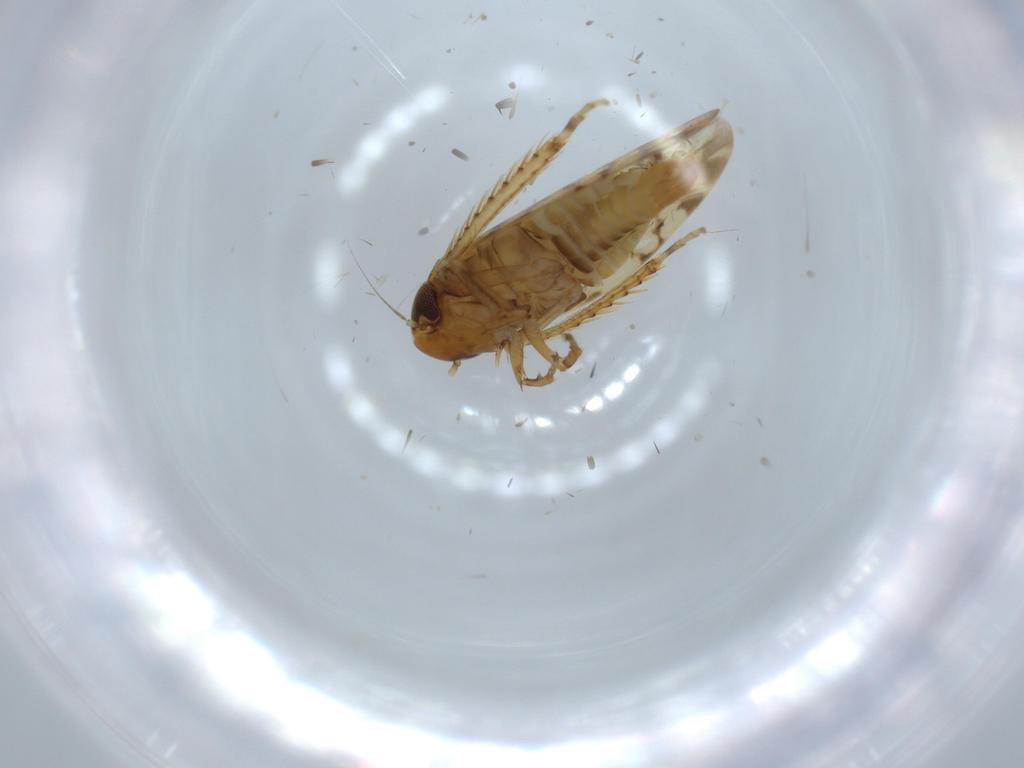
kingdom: Animalia
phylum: Arthropoda
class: Insecta
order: Hemiptera
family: Cicadellidae
